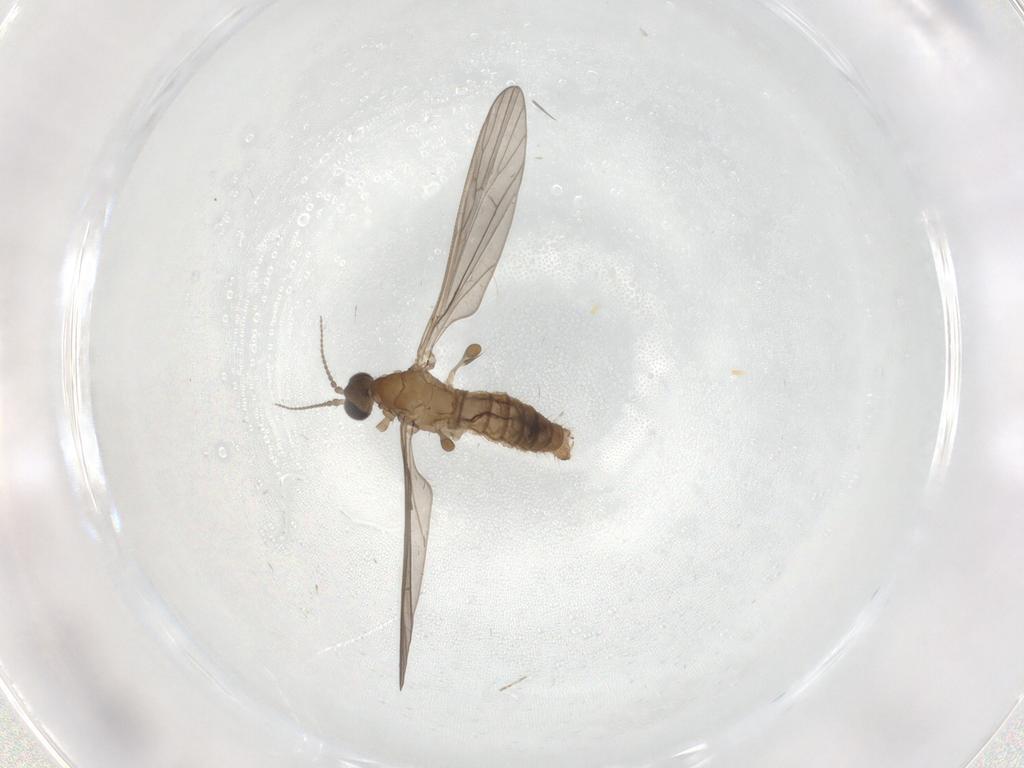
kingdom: Animalia
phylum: Arthropoda
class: Insecta
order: Diptera
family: Cecidomyiidae
